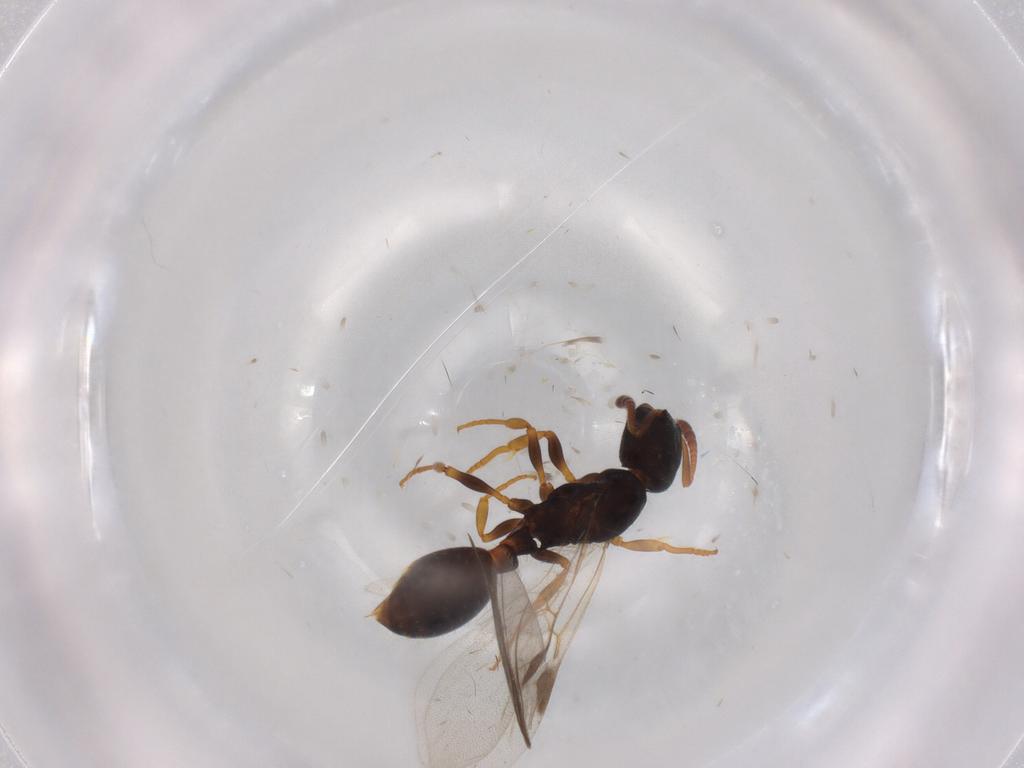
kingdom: Animalia
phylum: Arthropoda
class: Insecta
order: Hymenoptera
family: Formicidae
